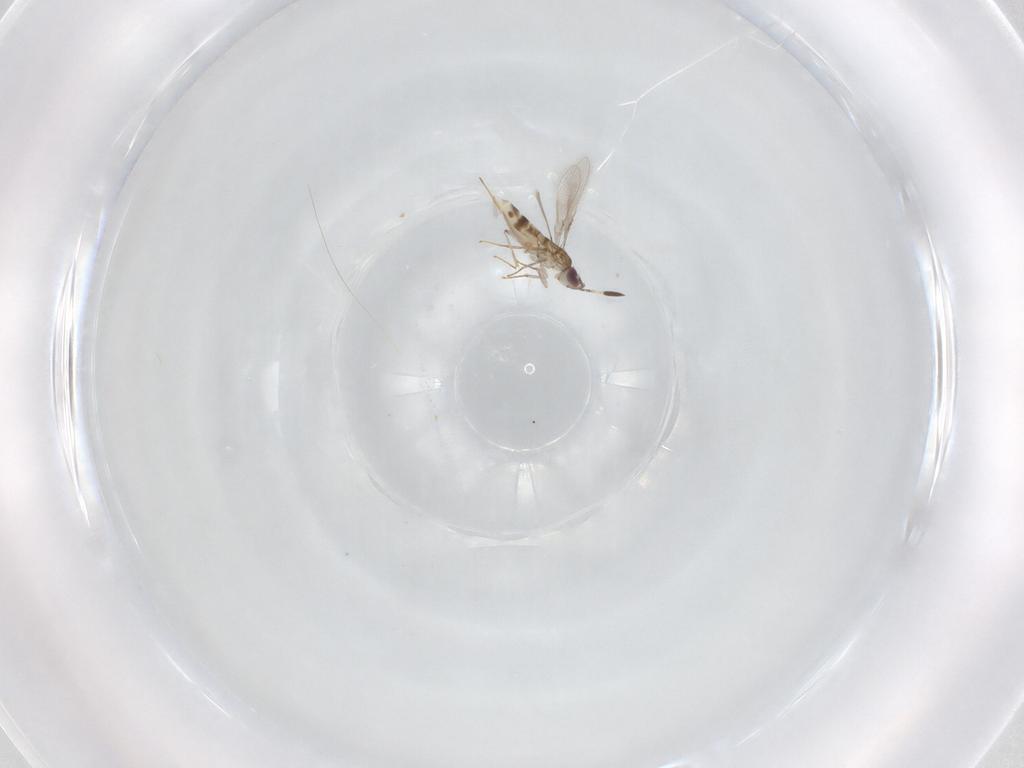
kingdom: Animalia
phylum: Arthropoda
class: Insecta
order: Hymenoptera
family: Mymaridae
